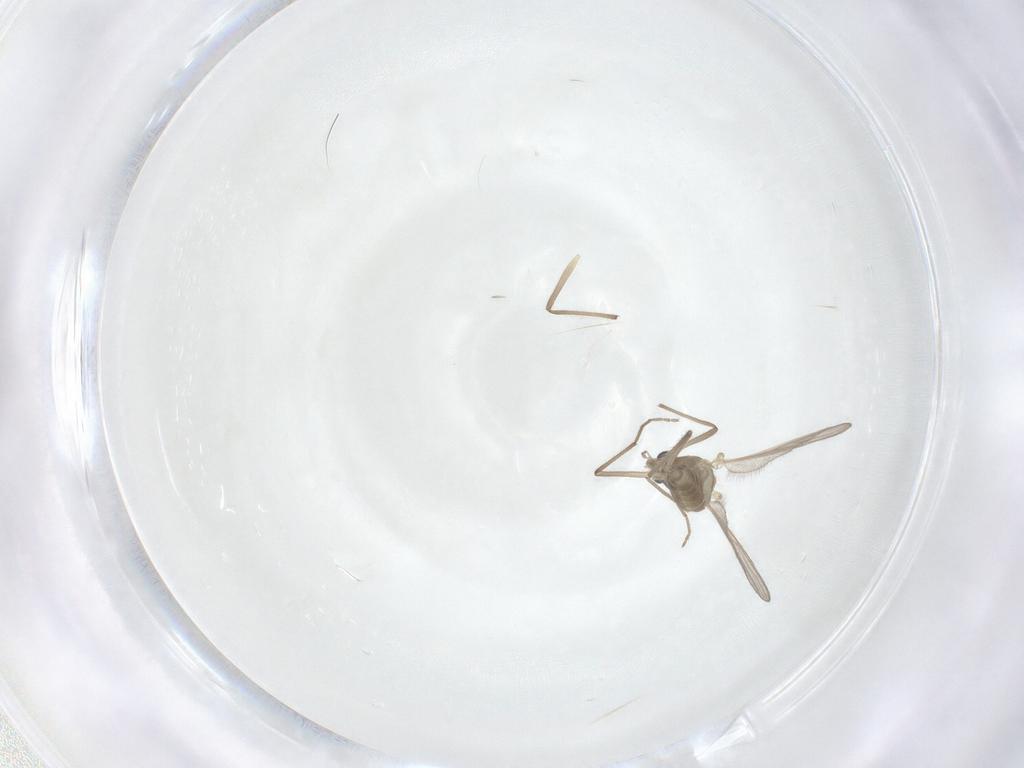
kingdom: Animalia
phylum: Arthropoda
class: Insecta
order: Diptera
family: Chironomidae
